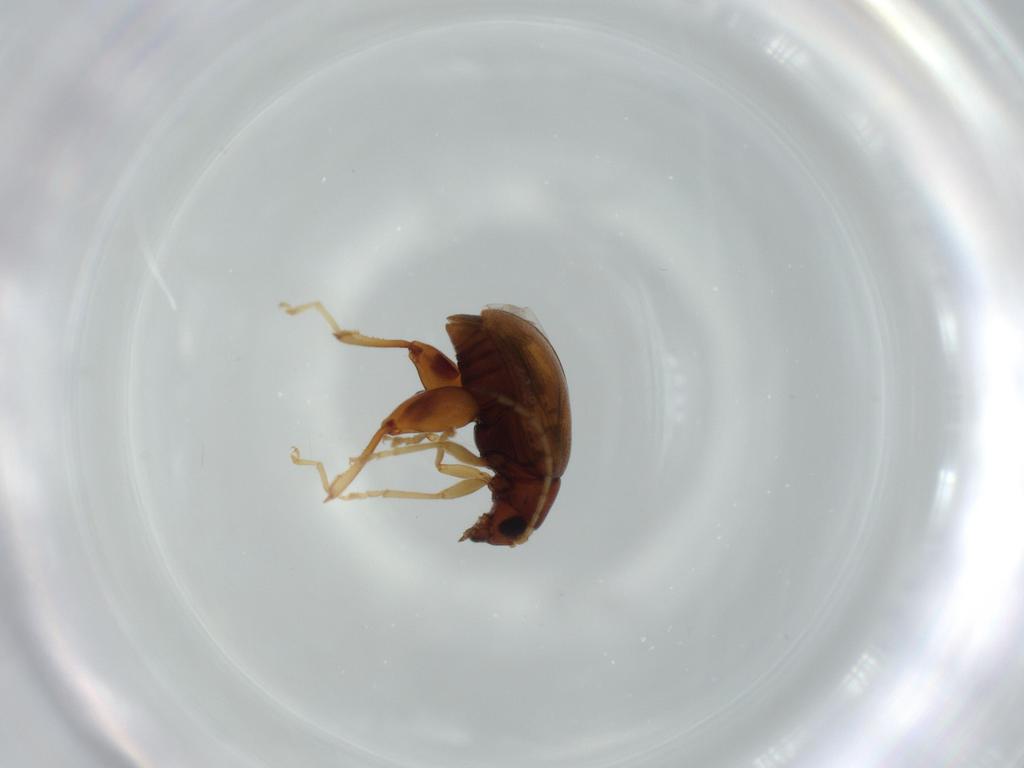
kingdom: Animalia
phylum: Arthropoda
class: Insecta
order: Coleoptera
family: Chrysomelidae
